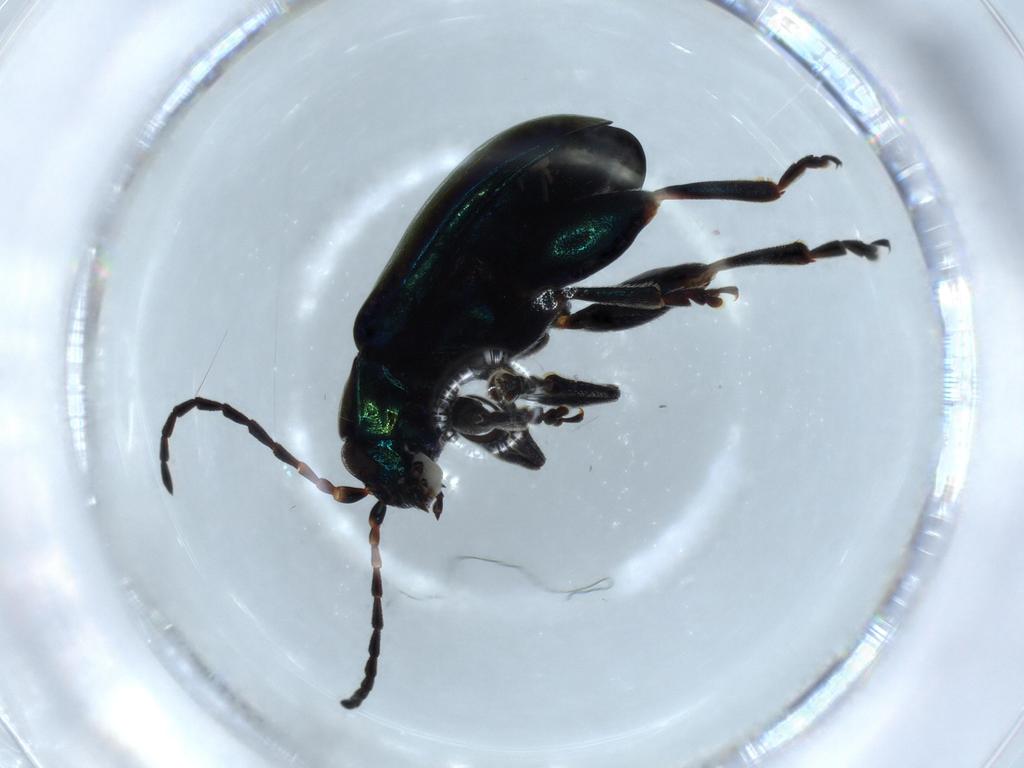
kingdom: Animalia
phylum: Arthropoda
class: Insecta
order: Coleoptera
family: Chrysomelidae
